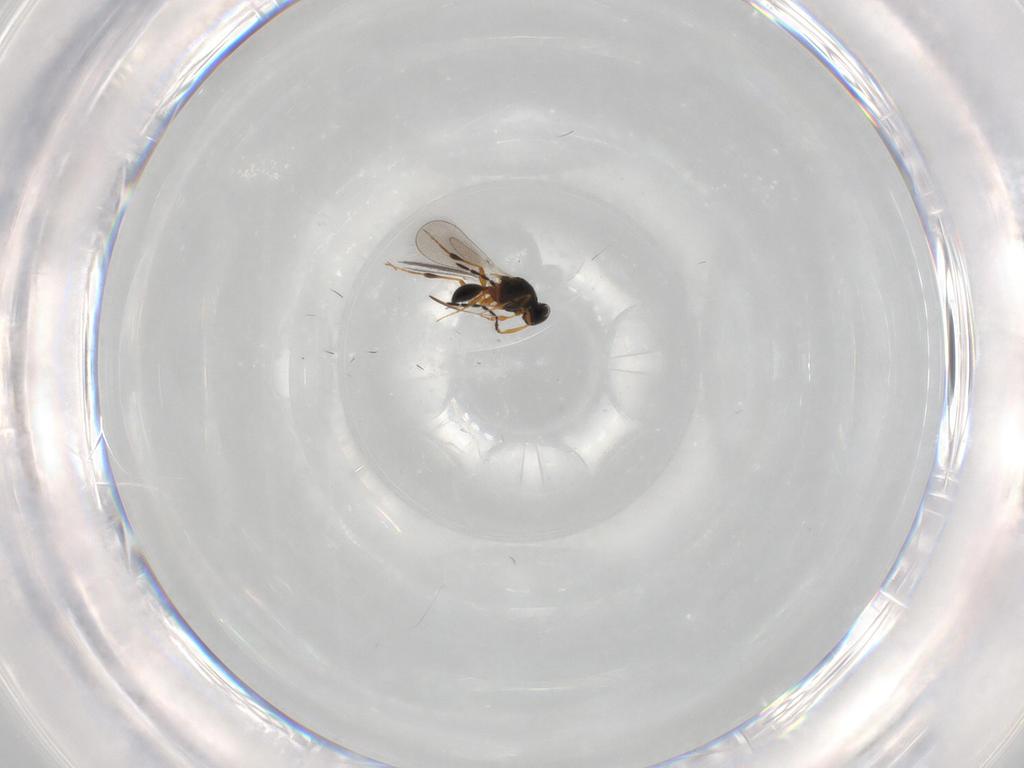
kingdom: Animalia
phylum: Arthropoda
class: Insecta
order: Hymenoptera
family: Platygastridae
